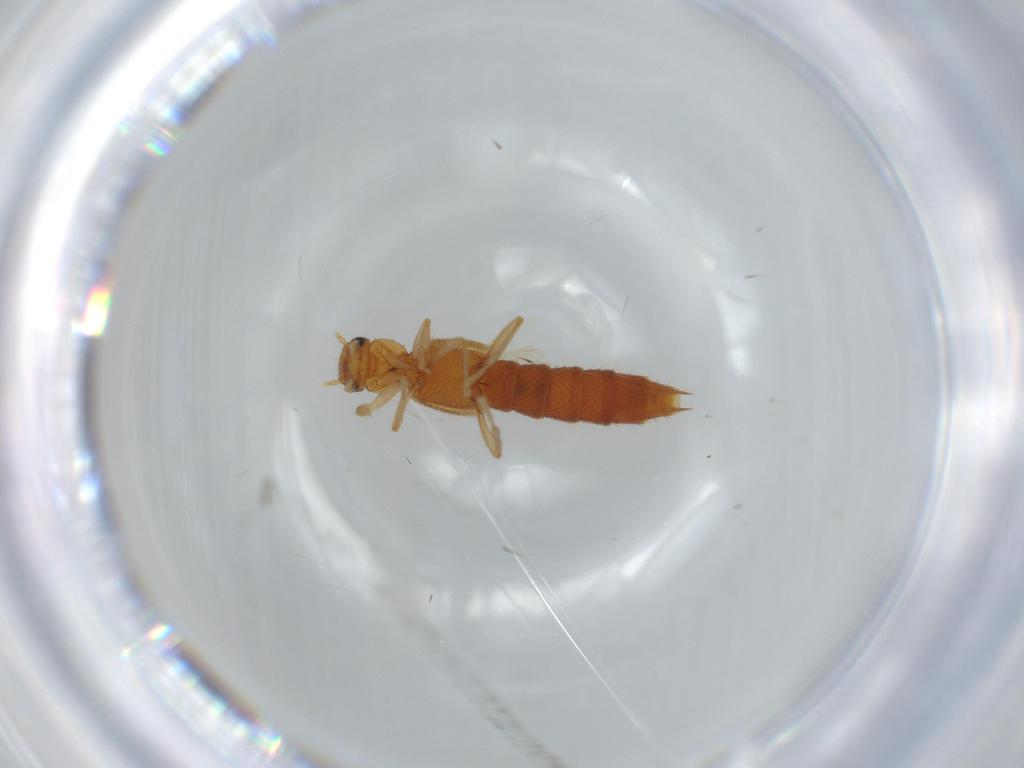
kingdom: Animalia
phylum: Arthropoda
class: Insecta
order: Coleoptera
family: Staphylinidae
